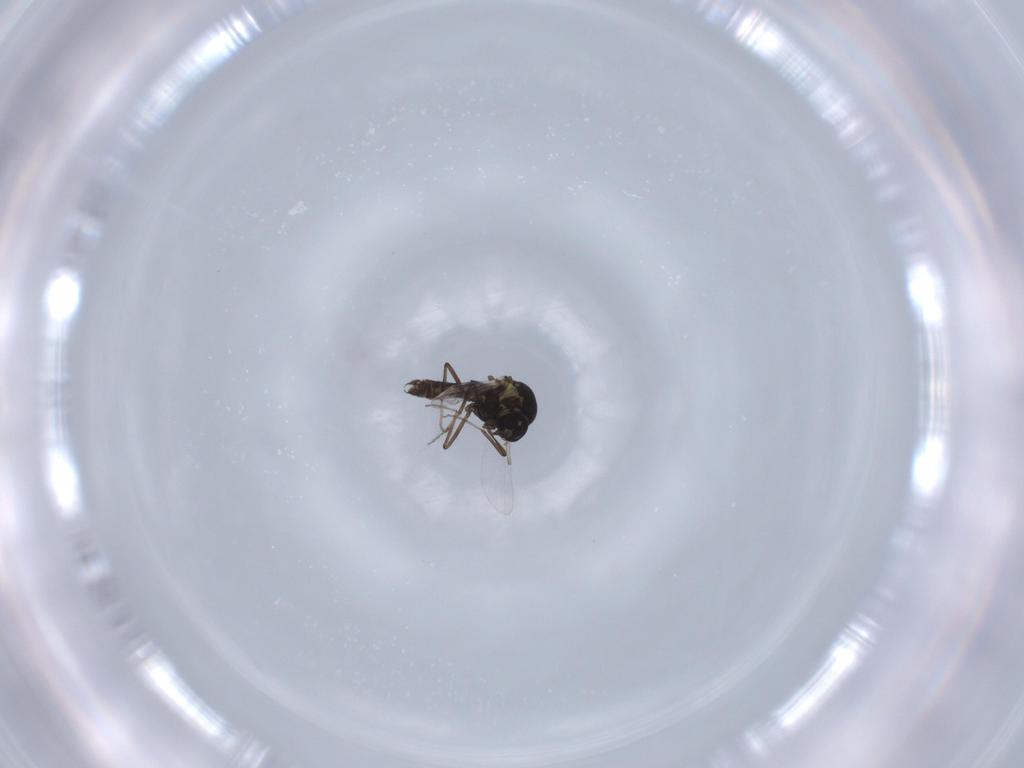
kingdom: Animalia
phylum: Arthropoda
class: Insecta
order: Diptera
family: Ceratopogonidae
